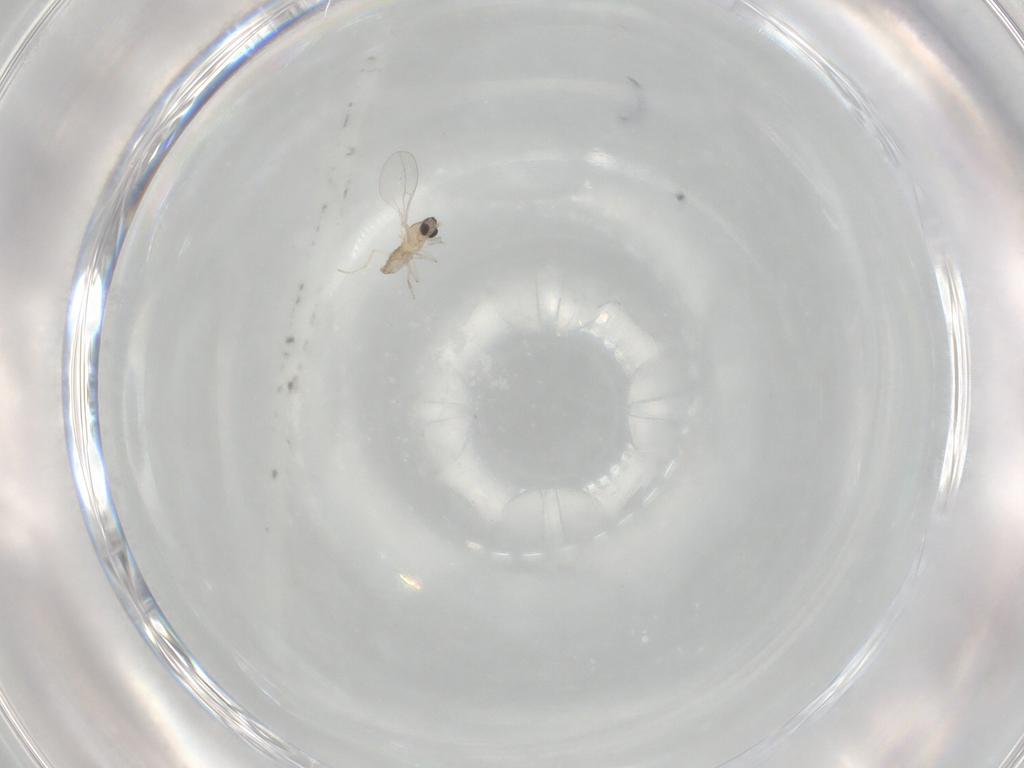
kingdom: Animalia
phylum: Arthropoda
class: Insecta
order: Diptera
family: Cecidomyiidae
